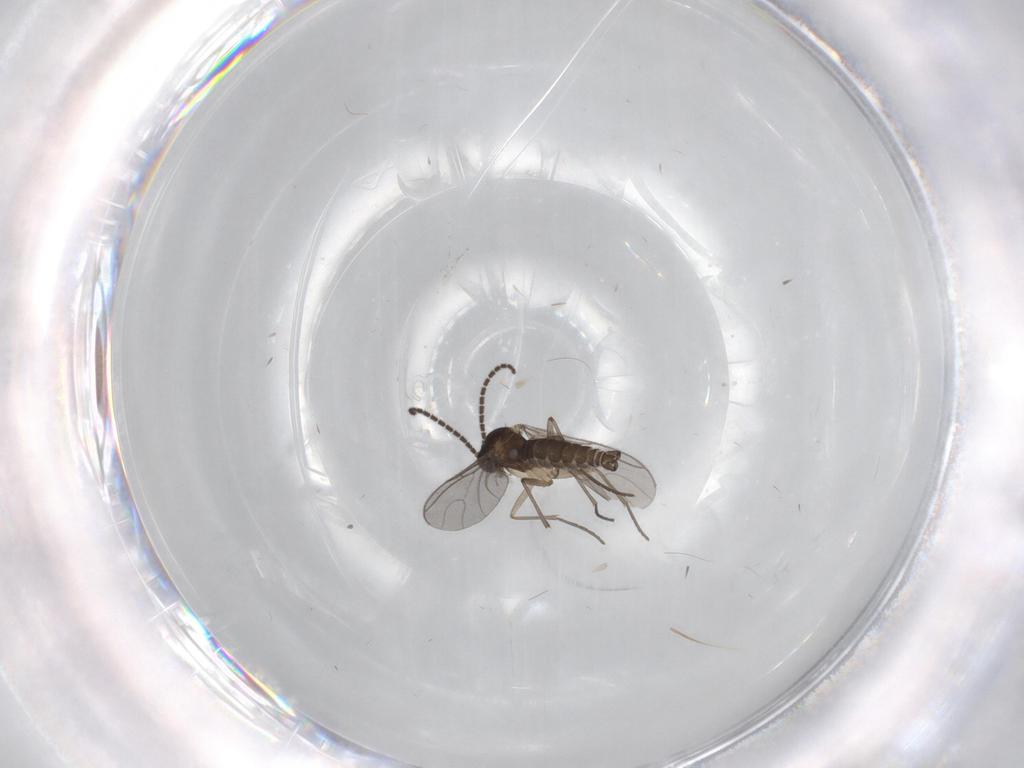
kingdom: Animalia
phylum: Arthropoda
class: Insecta
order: Diptera
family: Sciaridae
